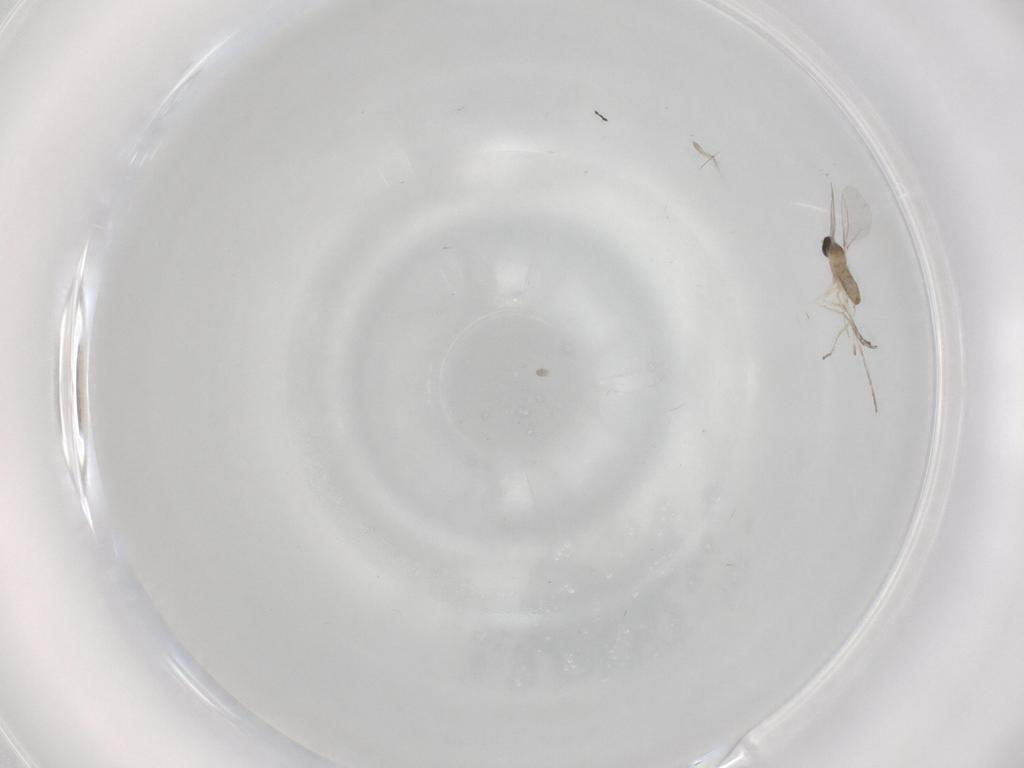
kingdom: Animalia
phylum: Arthropoda
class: Insecta
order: Diptera
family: Cecidomyiidae
